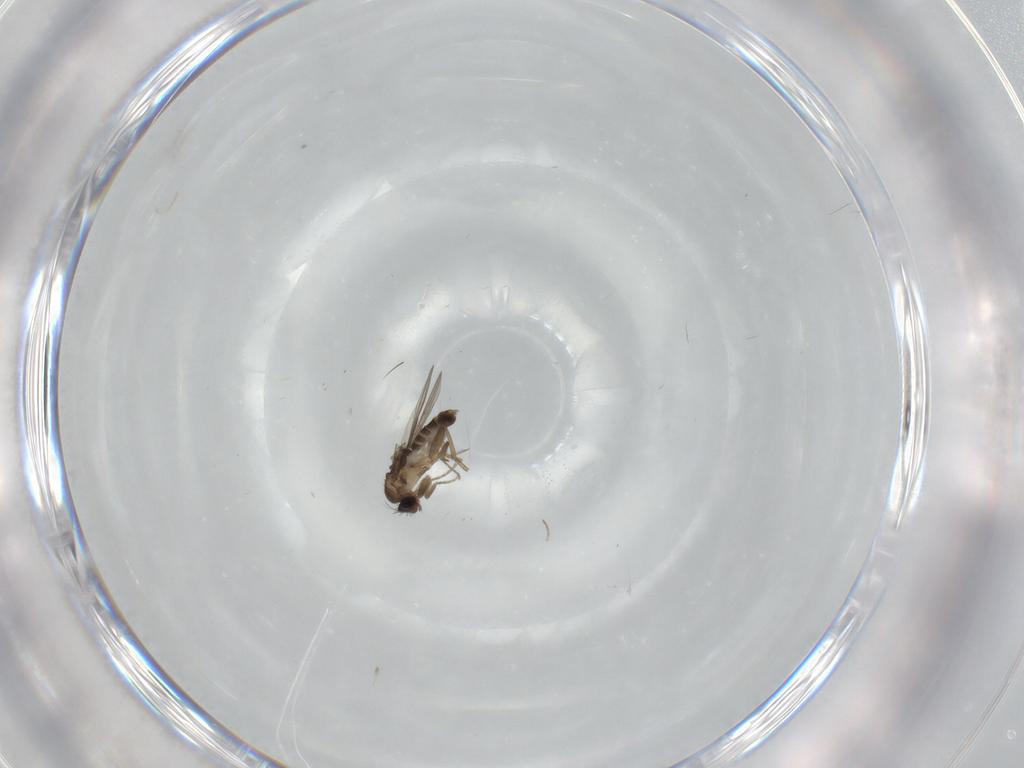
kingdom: Animalia
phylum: Arthropoda
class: Insecta
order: Diptera
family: Phoridae
